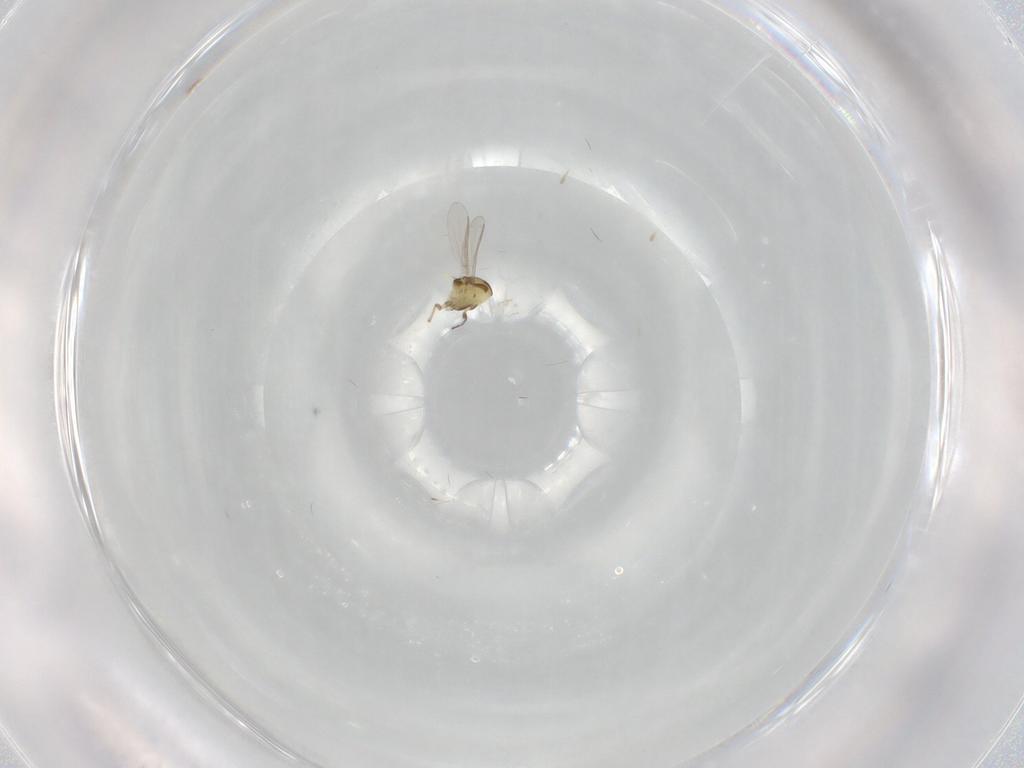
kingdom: Animalia
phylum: Arthropoda
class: Insecta
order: Diptera
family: Chironomidae
